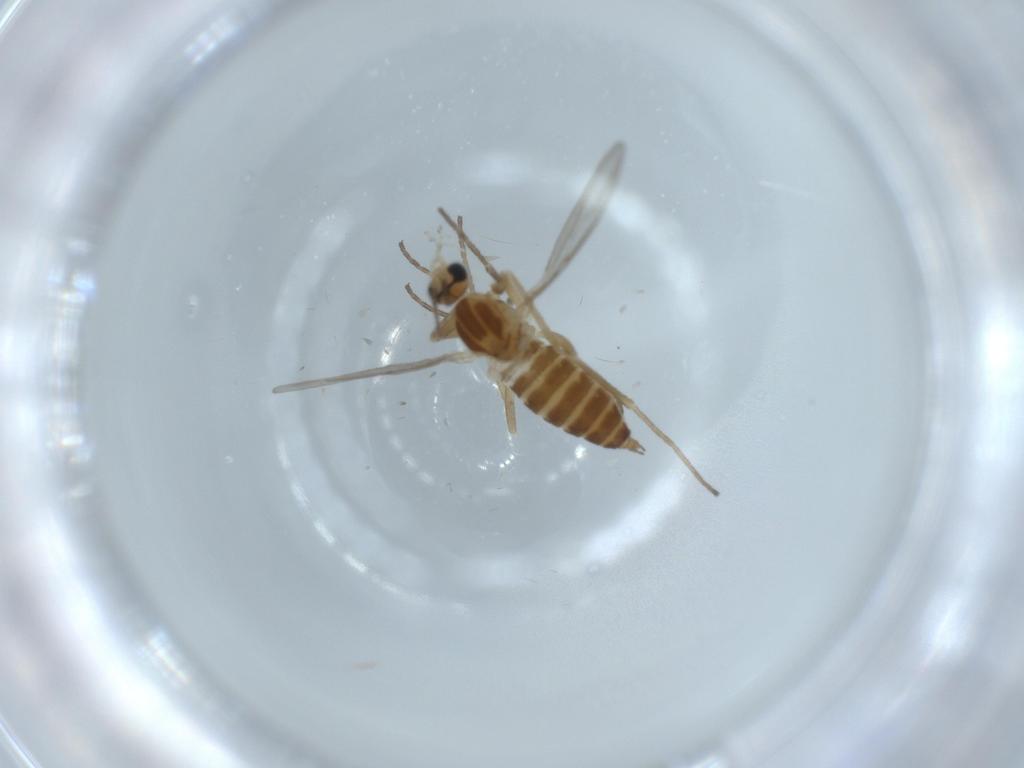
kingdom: Animalia
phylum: Arthropoda
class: Insecta
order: Diptera
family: Cecidomyiidae
